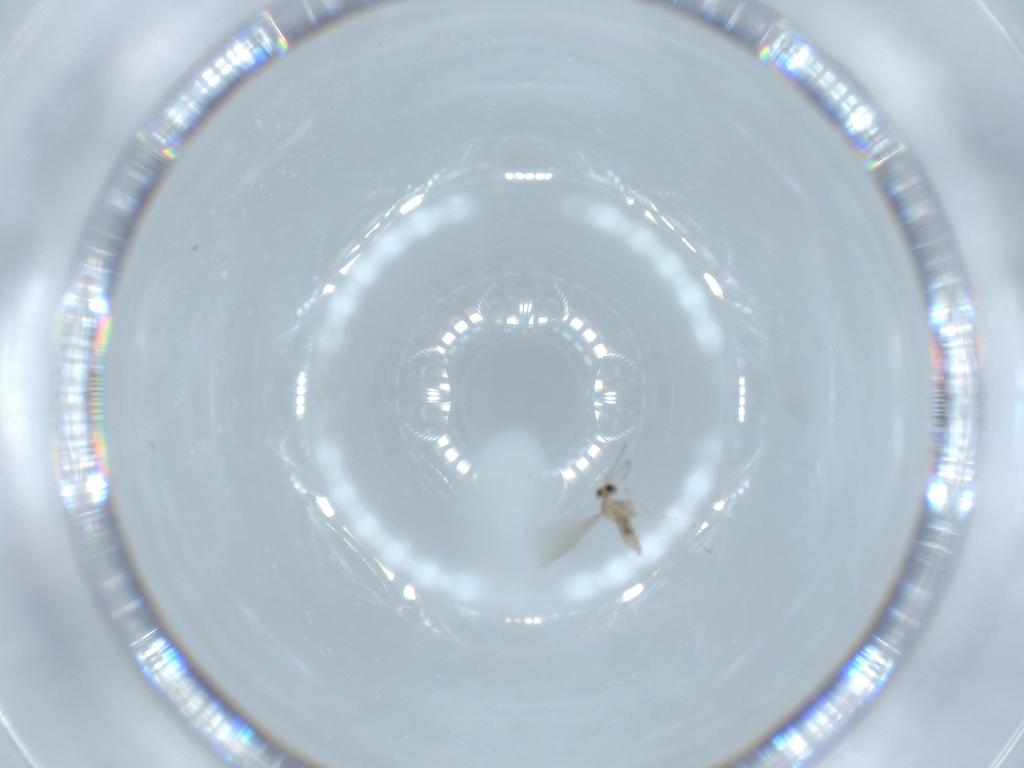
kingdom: Animalia
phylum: Arthropoda
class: Insecta
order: Diptera
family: Cecidomyiidae
